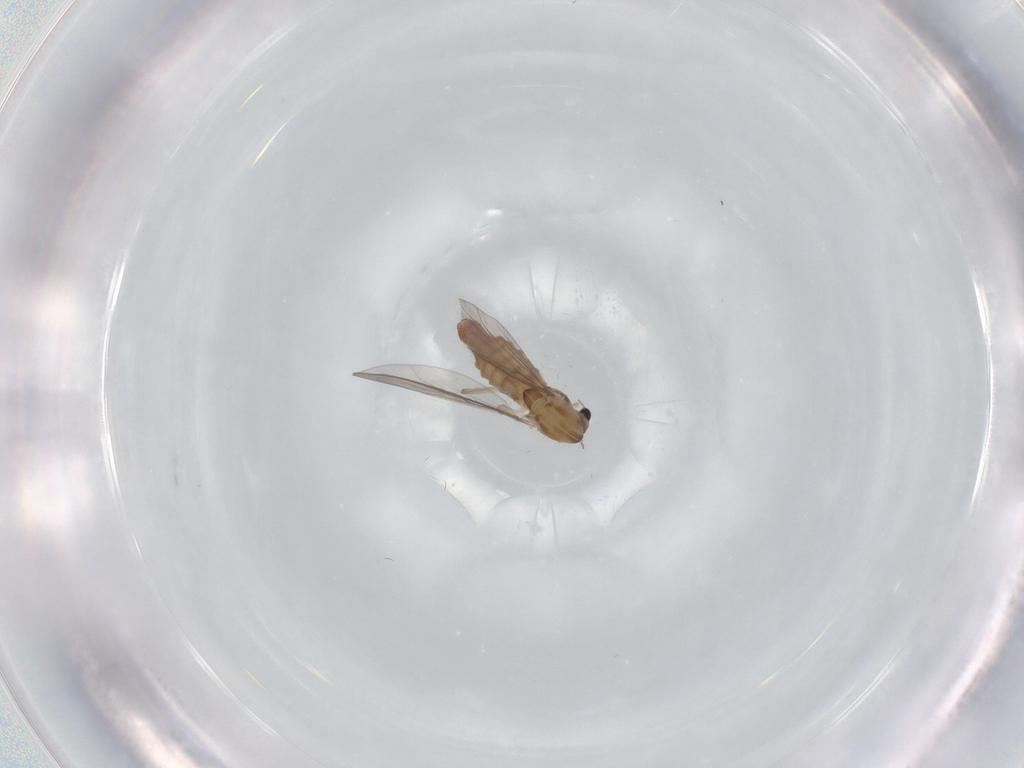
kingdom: Animalia
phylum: Arthropoda
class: Insecta
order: Diptera
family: Chironomidae
